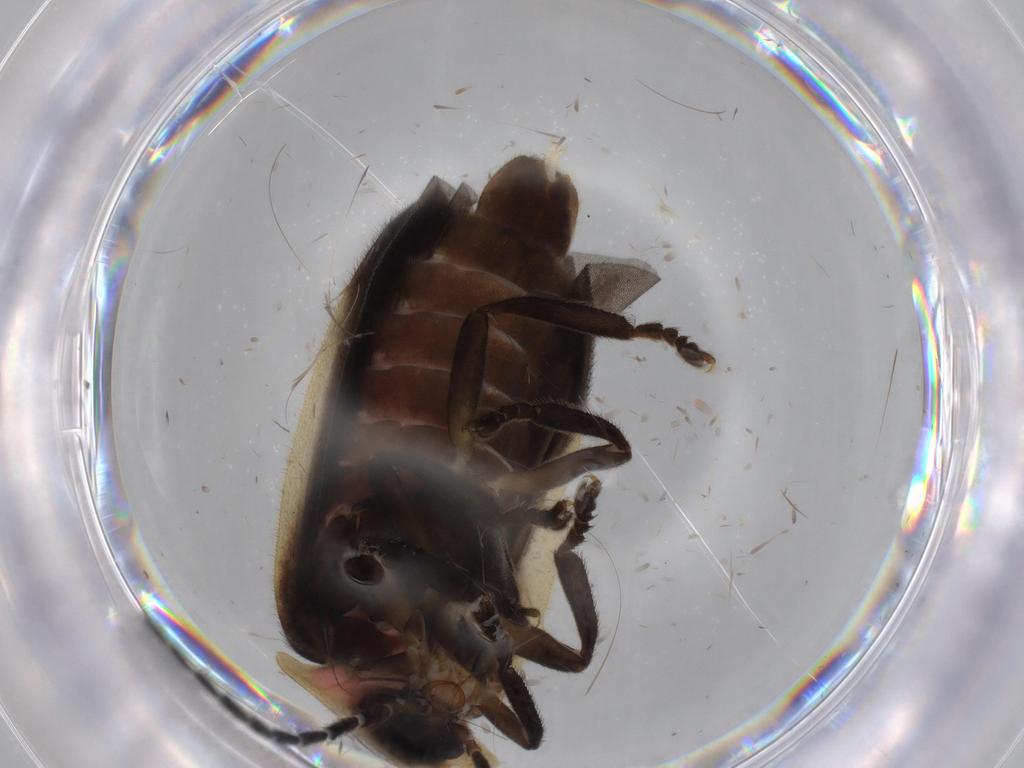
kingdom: Animalia
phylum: Arthropoda
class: Insecta
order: Coleoptera
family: Lampyridae
